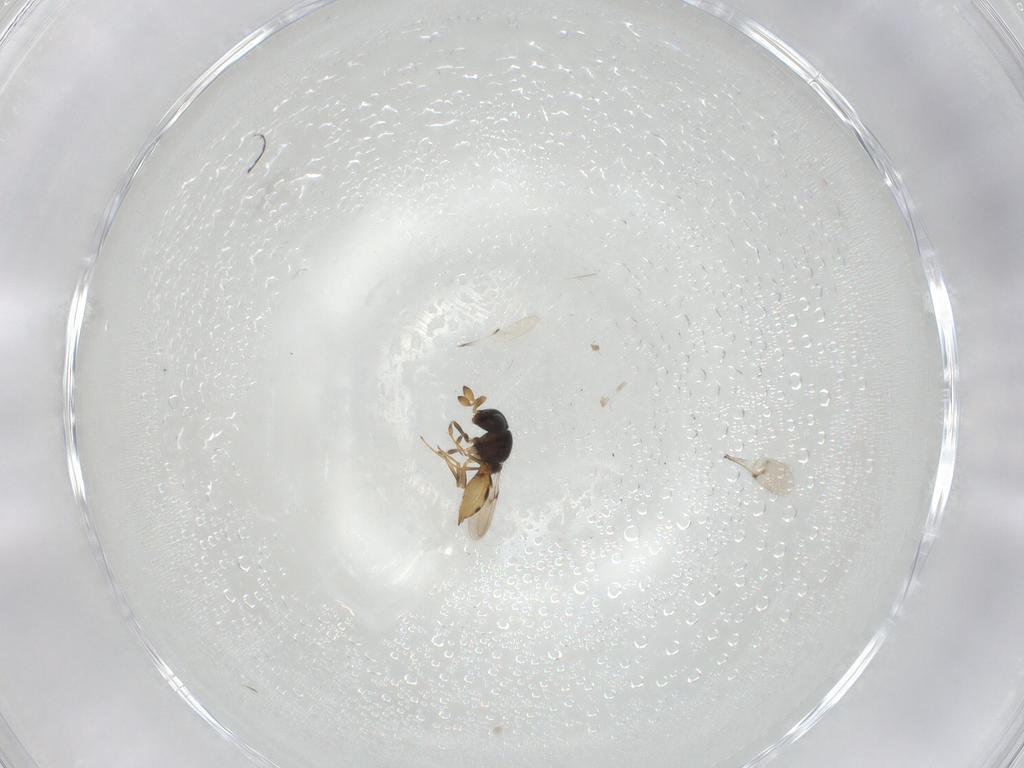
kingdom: Animalia
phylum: Arthropoda
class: Insecta
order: Hymenoptera
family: Scelionidae
